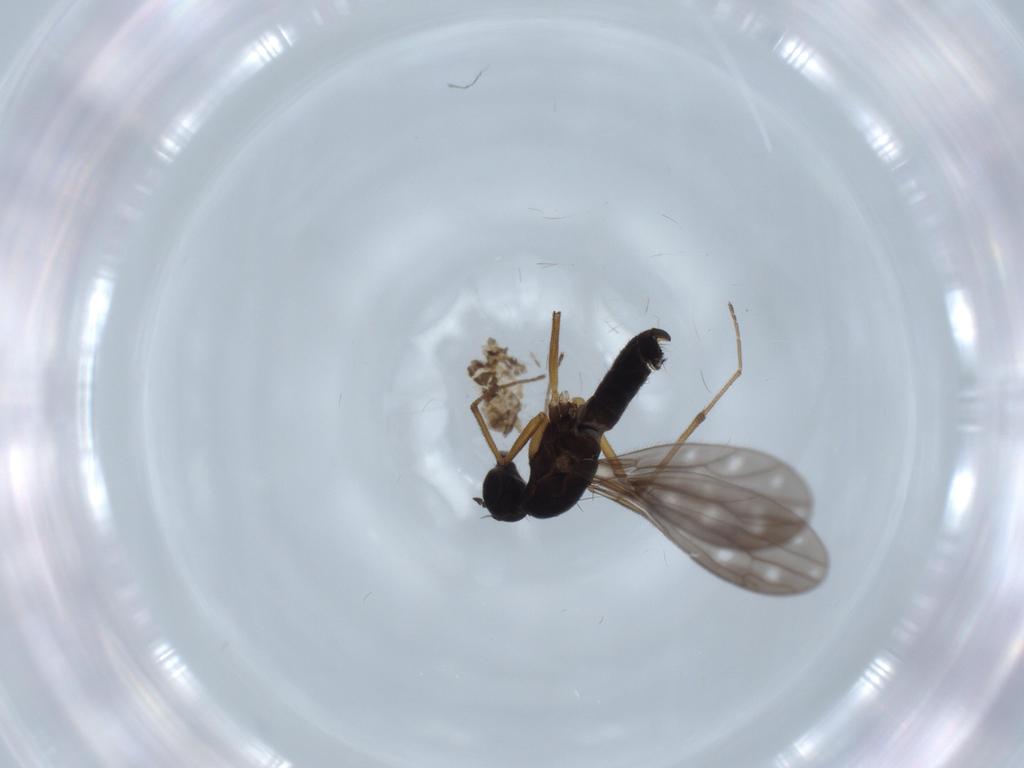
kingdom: Animalia
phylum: Arthropoda
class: Insecta
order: Diptera
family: Empididae
